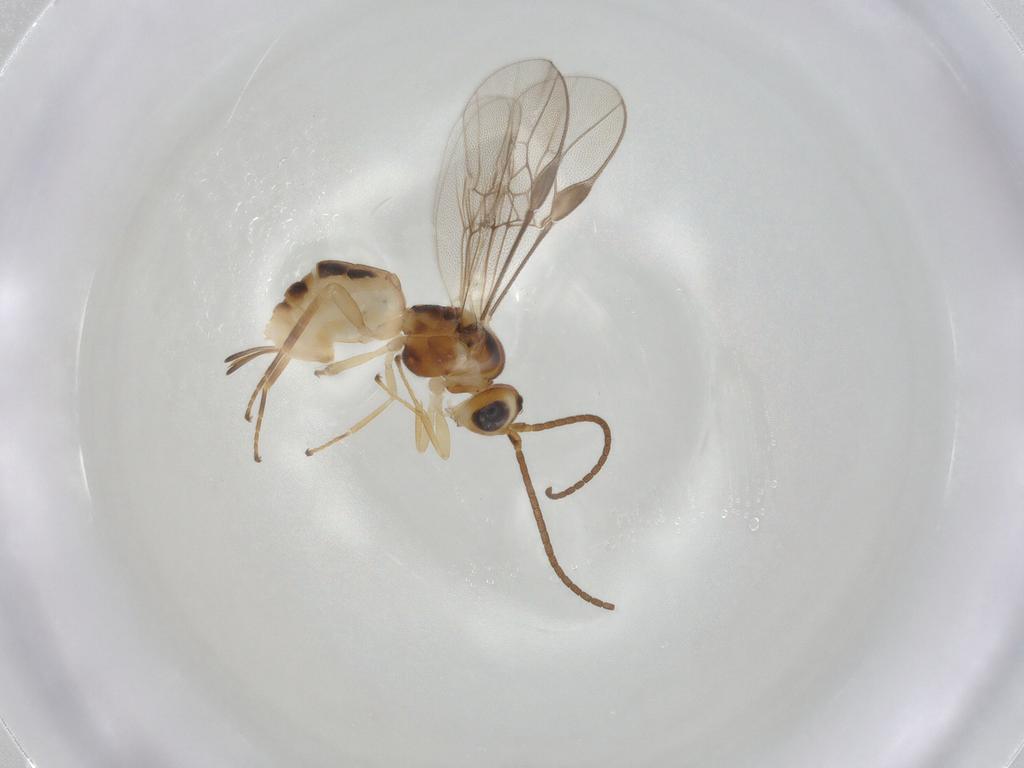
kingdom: Animalia
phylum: Arthropoda
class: Insecta
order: Hymenoptera
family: Braconidae
